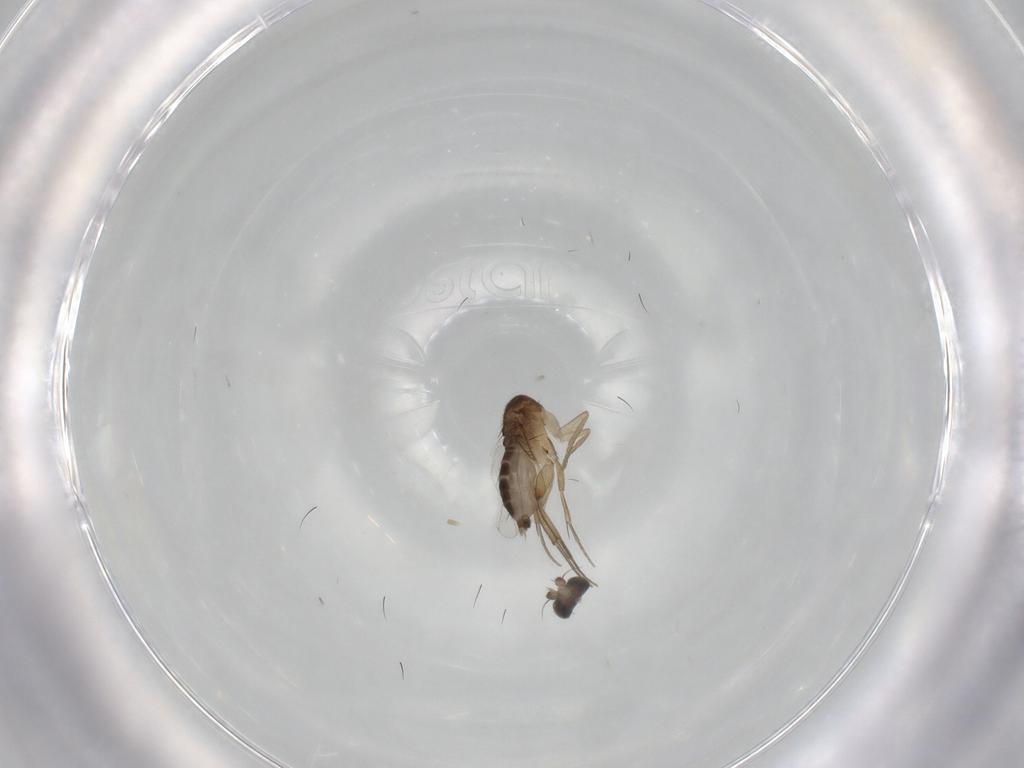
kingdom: Animalia
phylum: Arthropoda
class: Insecta
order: Diptera
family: Phoridae
